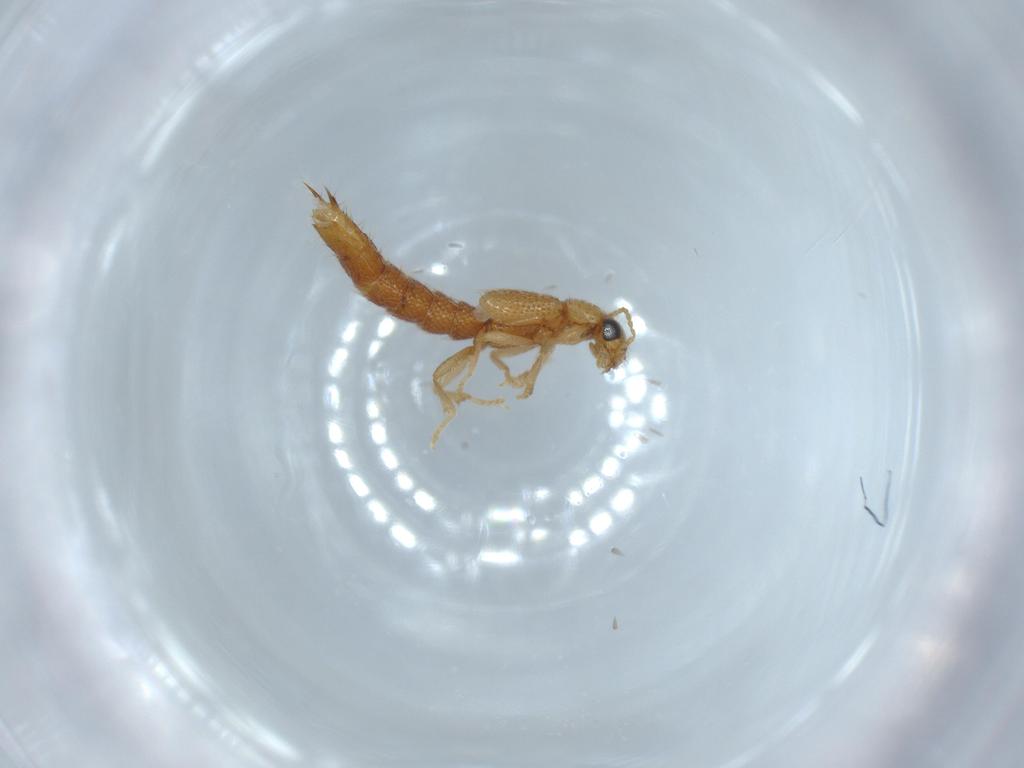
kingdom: Animalia
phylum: Arthropoda
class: Insecta
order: Coleoptera
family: Staphylinidae
